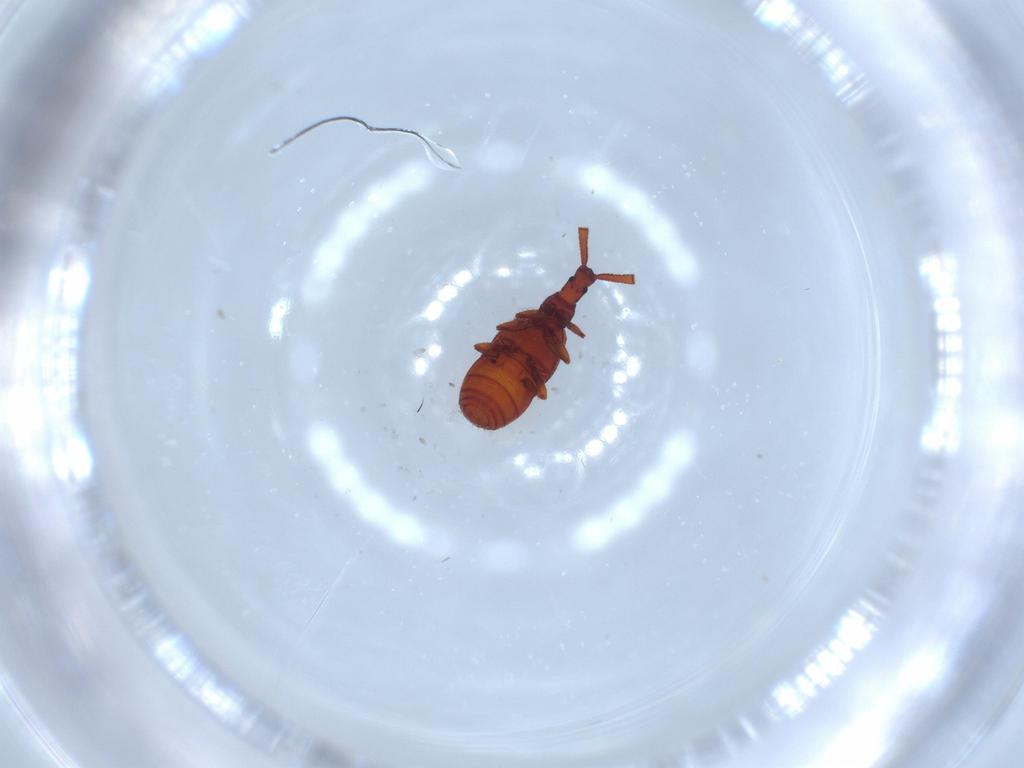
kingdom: Animalia
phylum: Arthropoda
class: Insecta
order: Coleoptera
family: Staphylinidae
